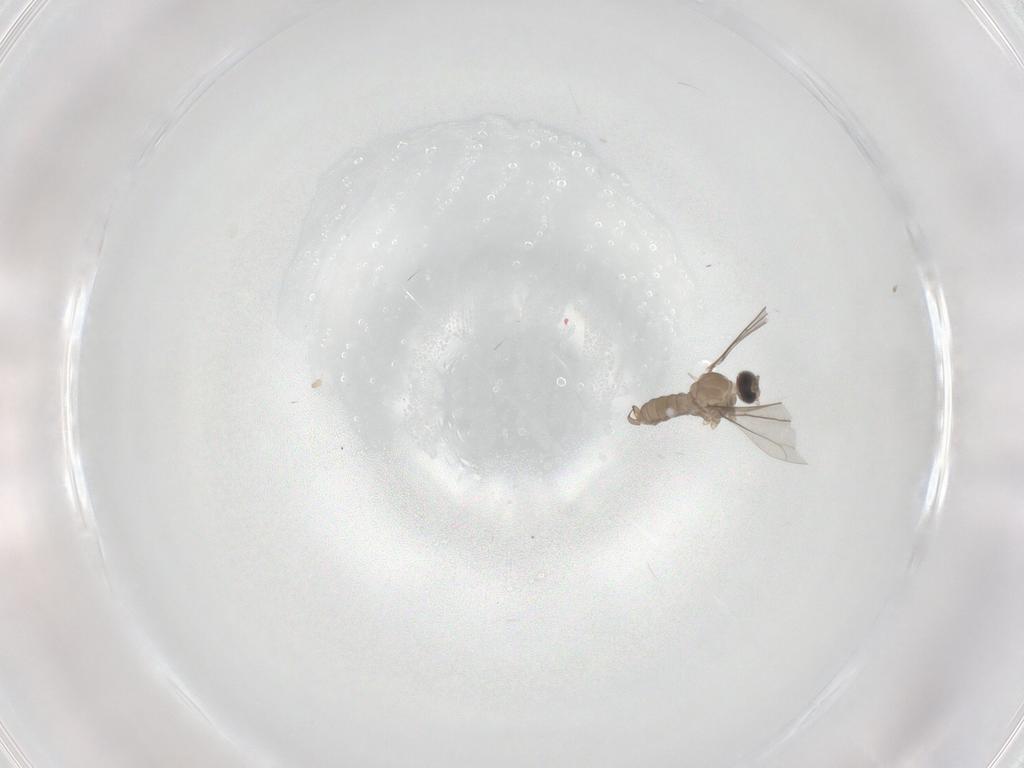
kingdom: Animalia
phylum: Arthropoda
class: Insecta
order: Diptera
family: Cecidomyiidae
